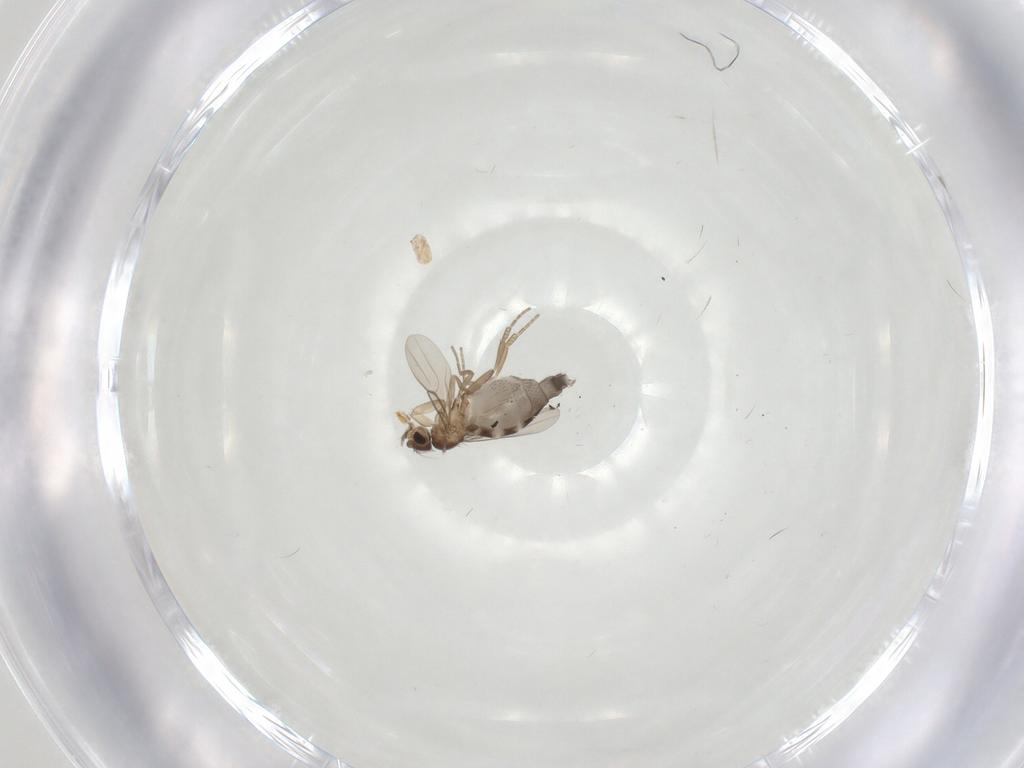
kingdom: Animalia
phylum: Arthropoda
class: Insecta
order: Diptera
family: Phoridae
